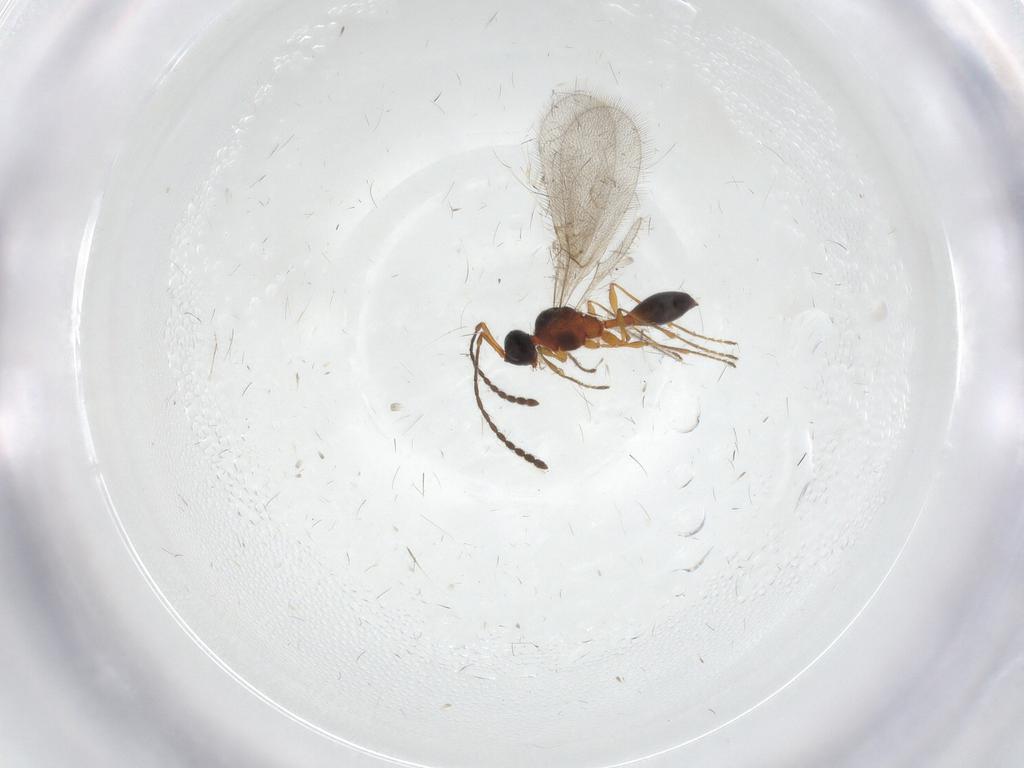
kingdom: Animalia
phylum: Arthropoda
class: Insecta
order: Hymenoptera
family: Diapriidae
